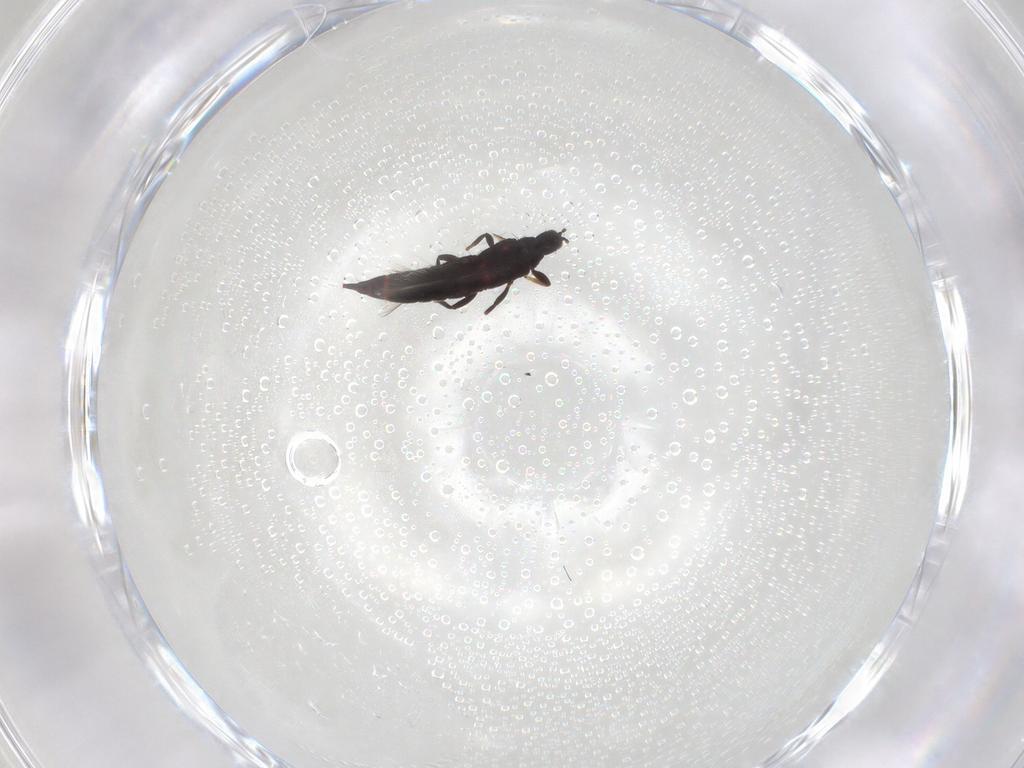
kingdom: Animalia
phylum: Arthropoda
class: Insecta
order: Thysanoptera
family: Phlaeothripidae
